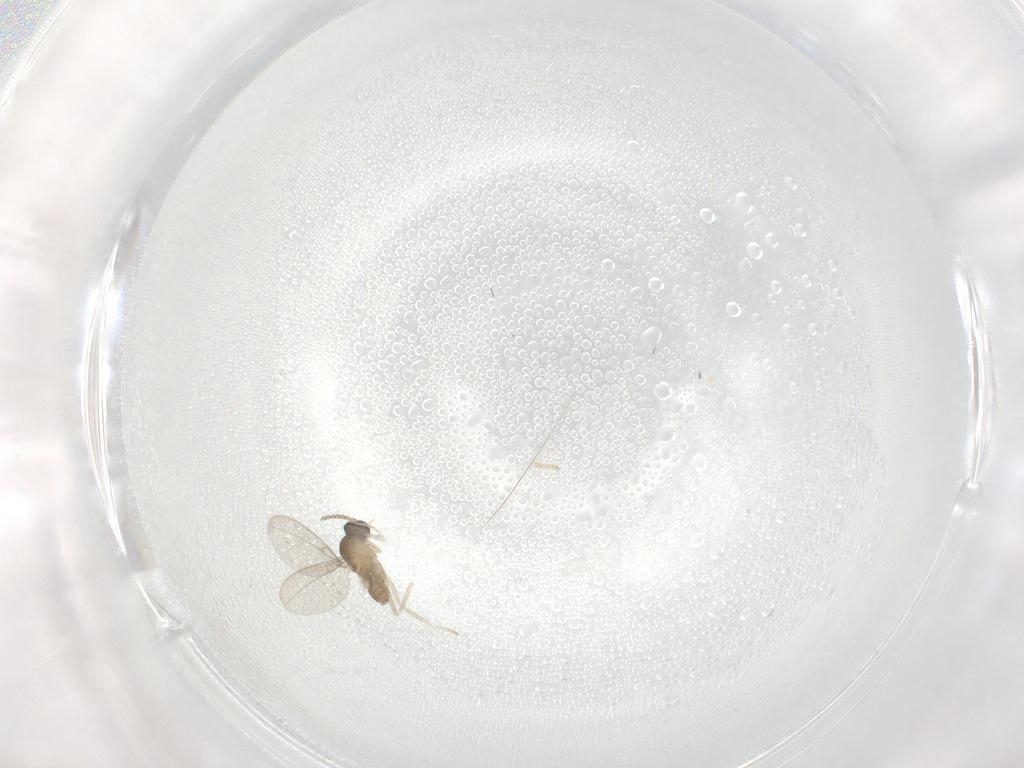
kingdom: Animalia
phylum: Arthropoda
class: Insecta
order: Diptera
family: Cecidomyiidae
